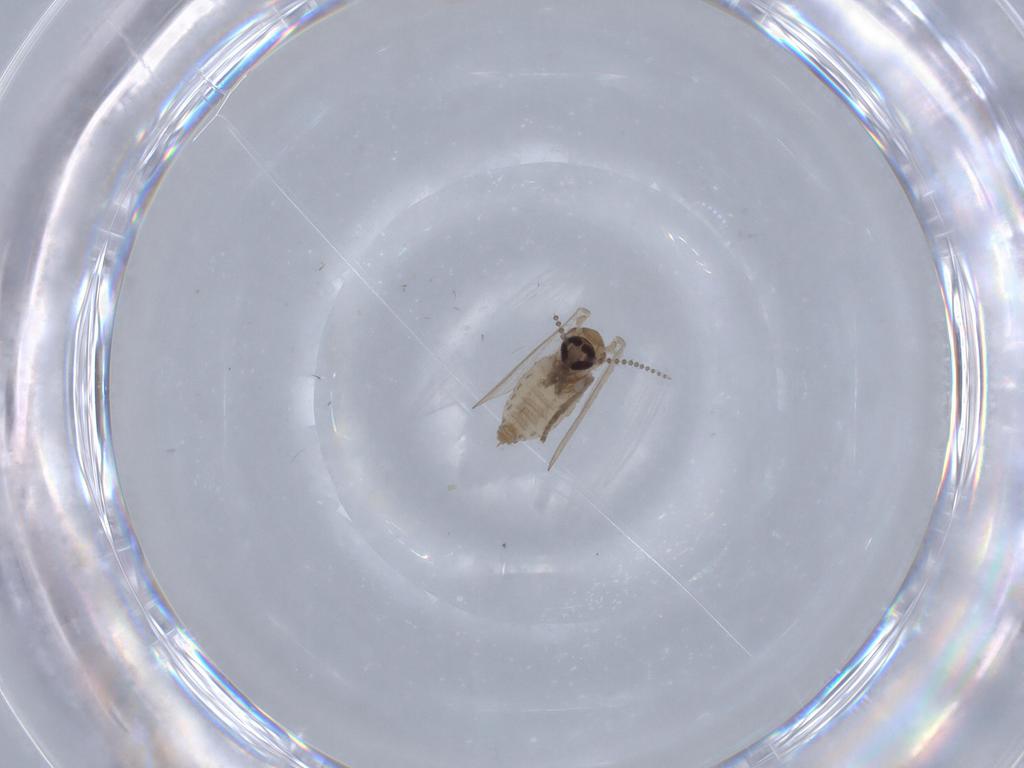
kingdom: Animalia
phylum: Arthropoda
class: Insecta
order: Diptera
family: Psychodidae
